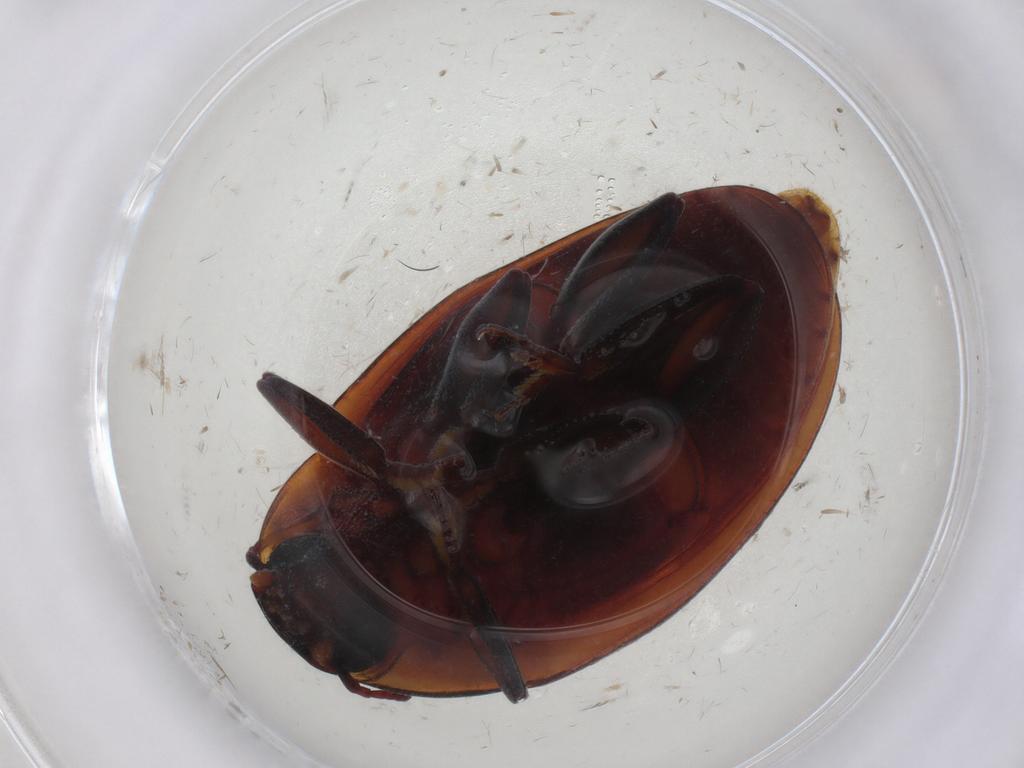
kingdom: Animalia
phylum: Arthropoda
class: Insecta
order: Coleoptera
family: Zopheridae
